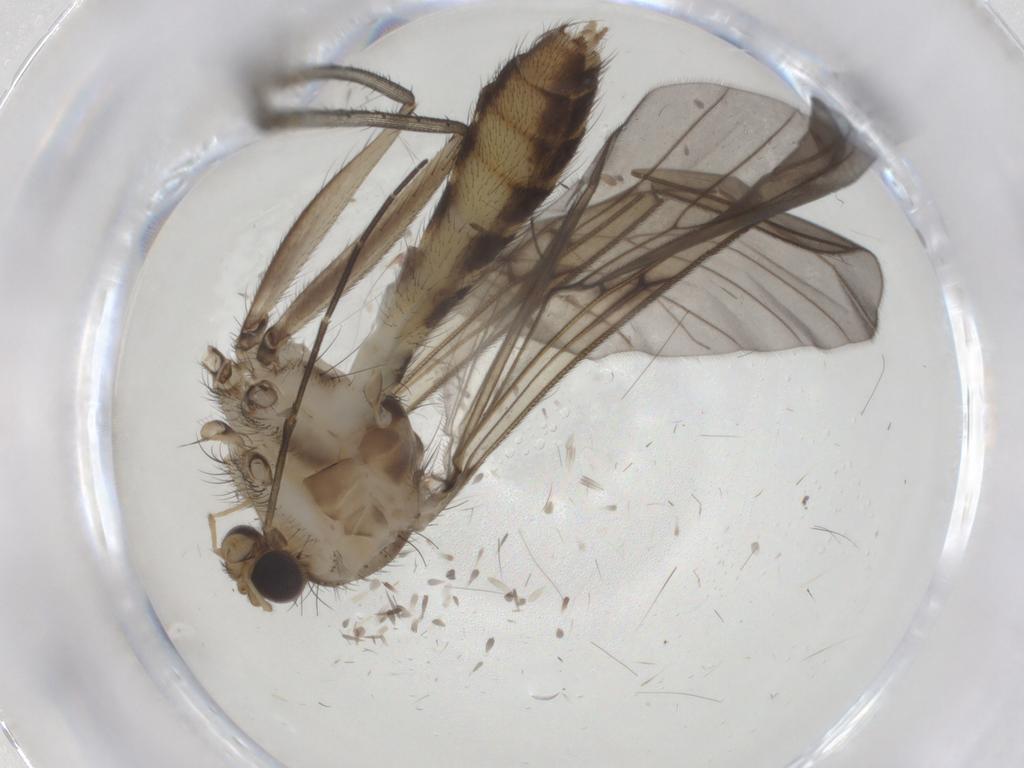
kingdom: Animalia
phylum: Arthropoda
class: Insecta
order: Diptera
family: Mycetophilidae
